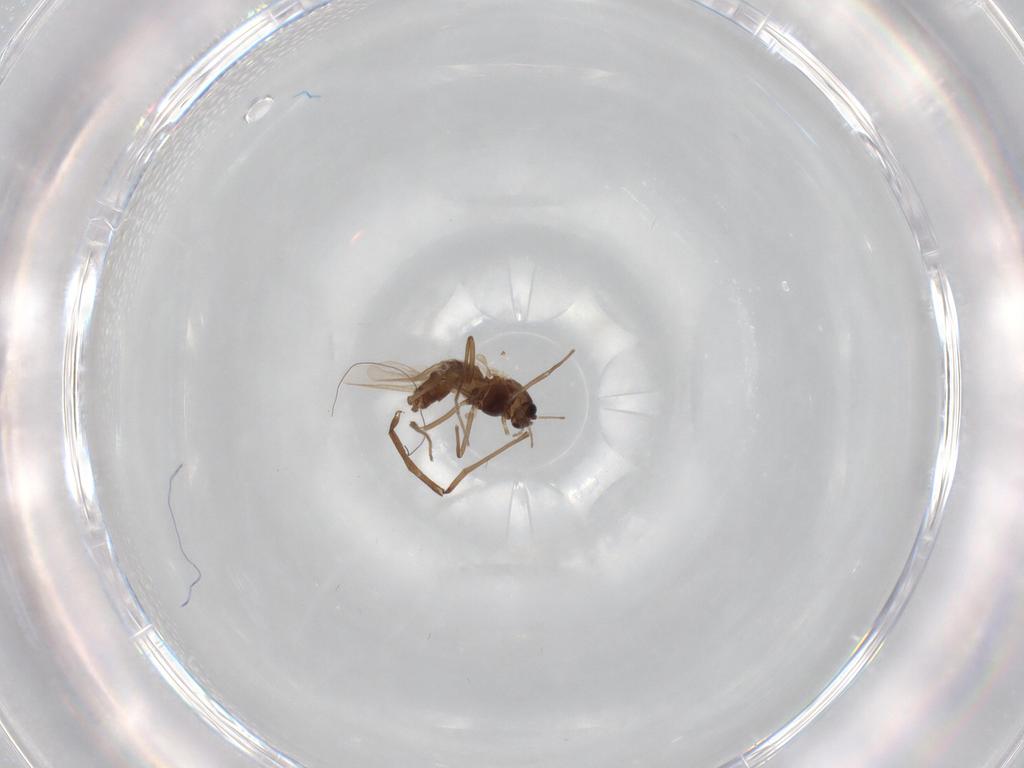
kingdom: Animalia
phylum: Arthropoda
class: Insecta
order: Diptera
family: Chironomidae
